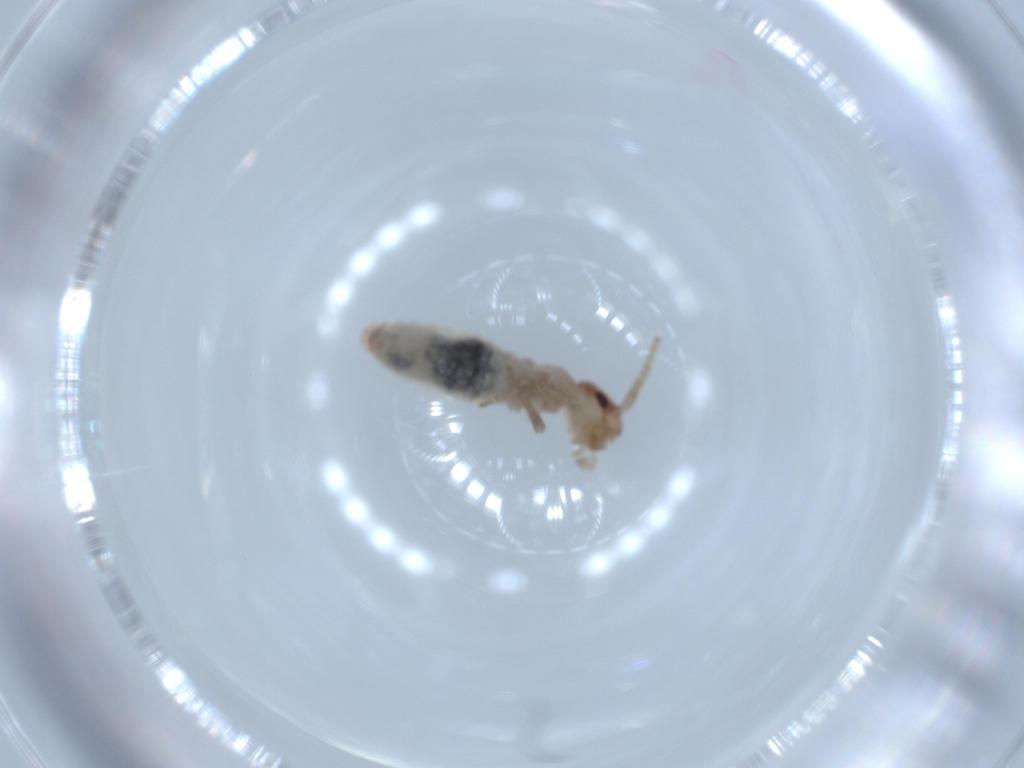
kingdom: Animalia
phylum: Arthropoda
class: Insecta
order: Orthoptera
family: Mogoplistidae
